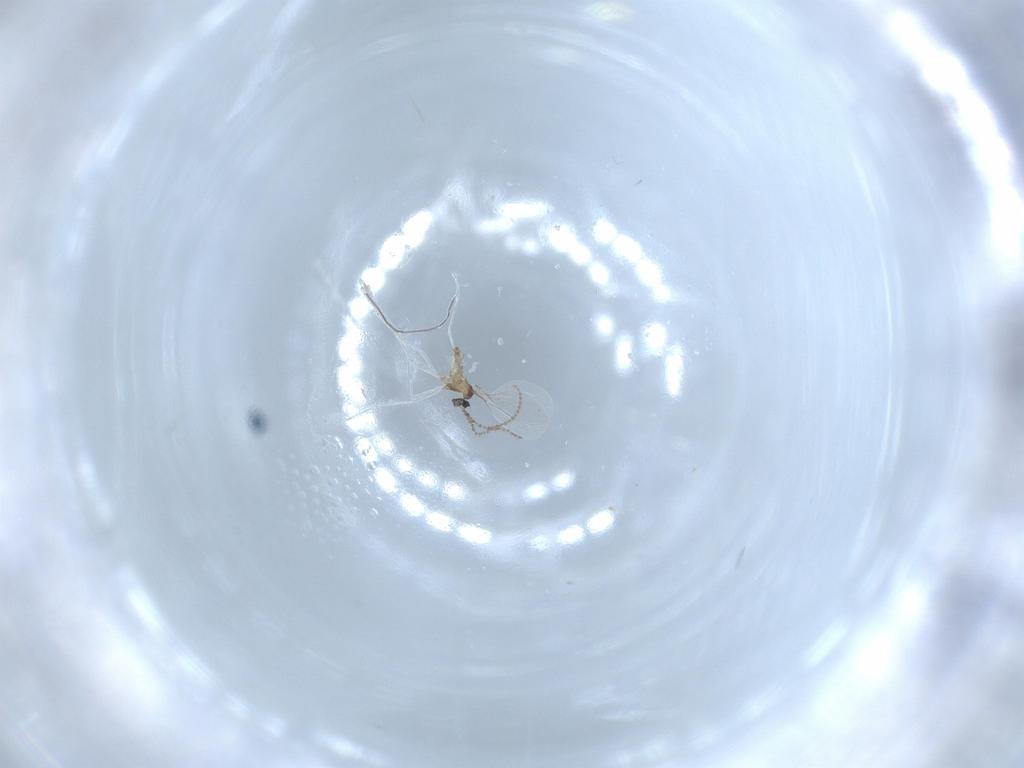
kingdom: Animalia
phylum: Arthropoda
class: Insecta
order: Diptera
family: Cecidomyiidae
